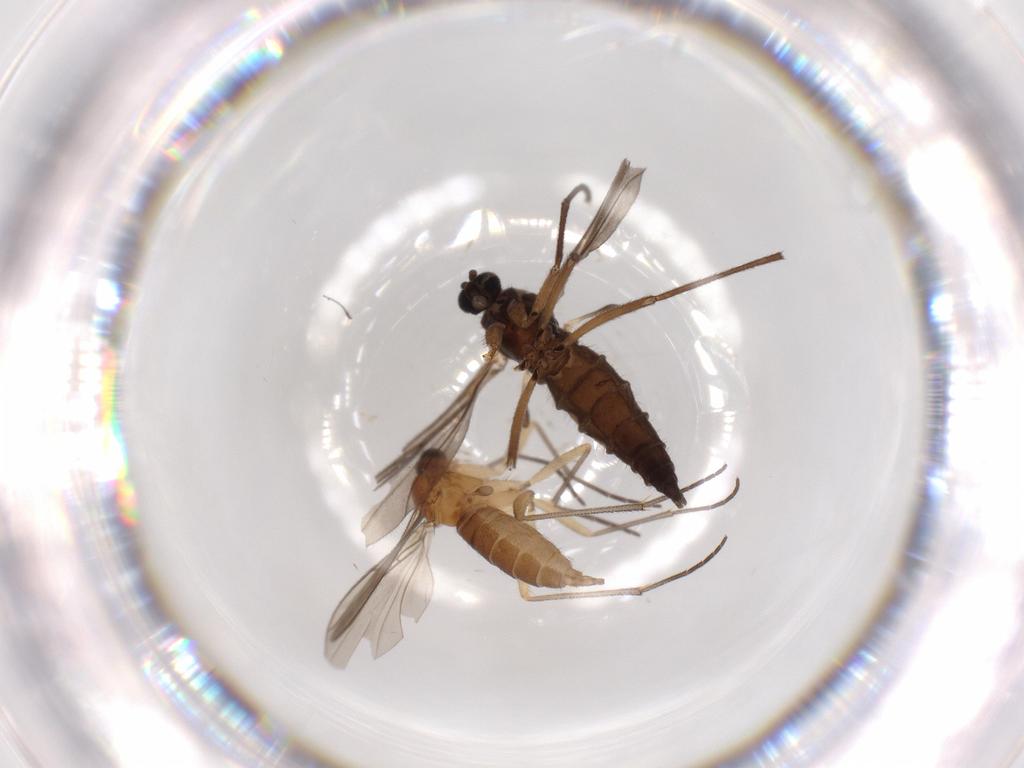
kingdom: Animalia
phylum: Arthropoda
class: Insecta
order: Diptera
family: Sciaridae
